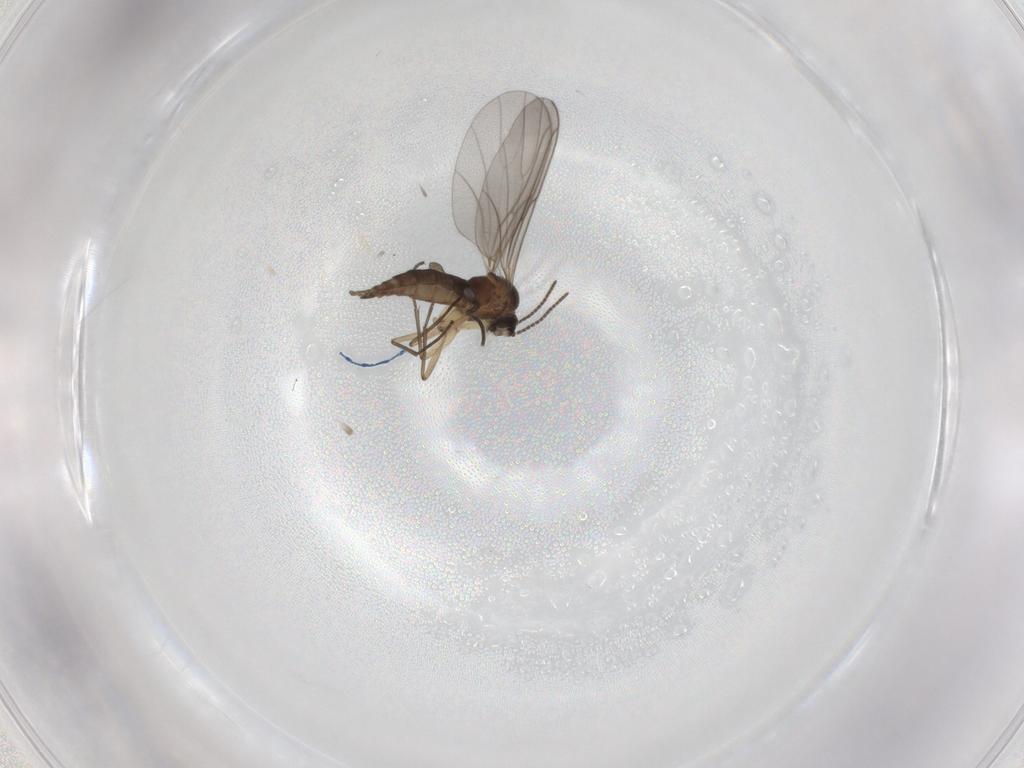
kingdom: Animalia
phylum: Arthropoda
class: Insecta
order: Diptera
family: Sciaridae
